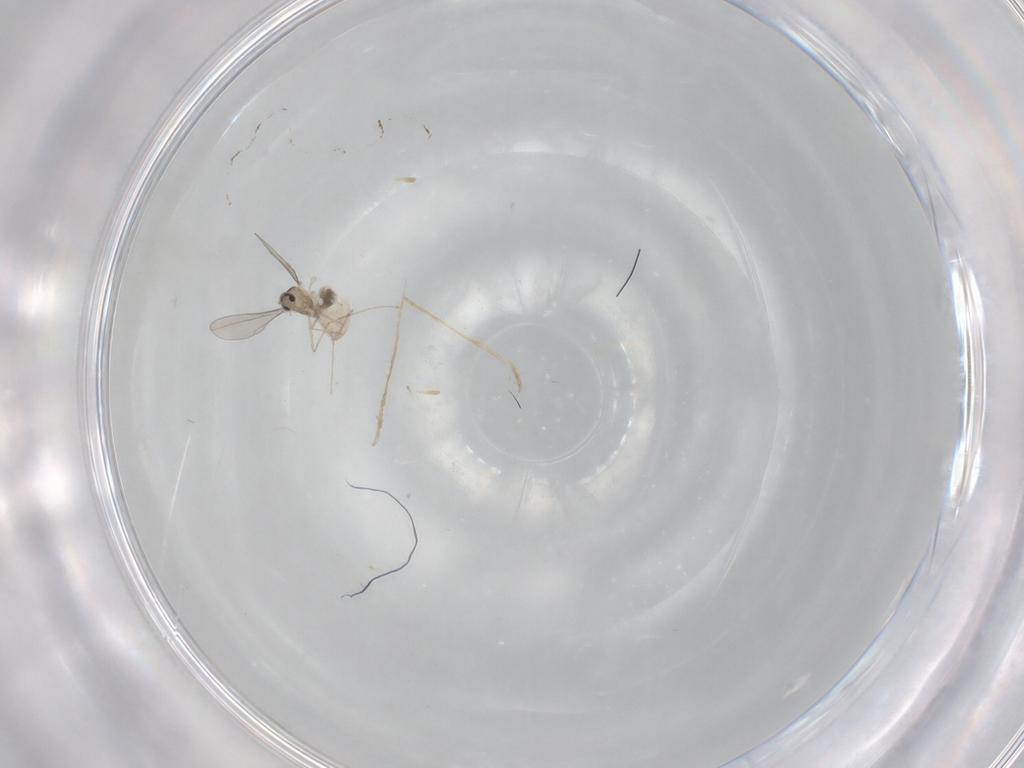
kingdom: Animalia
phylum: Arthropoda
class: Insecta
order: Diptera
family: Cecidomyiidae
